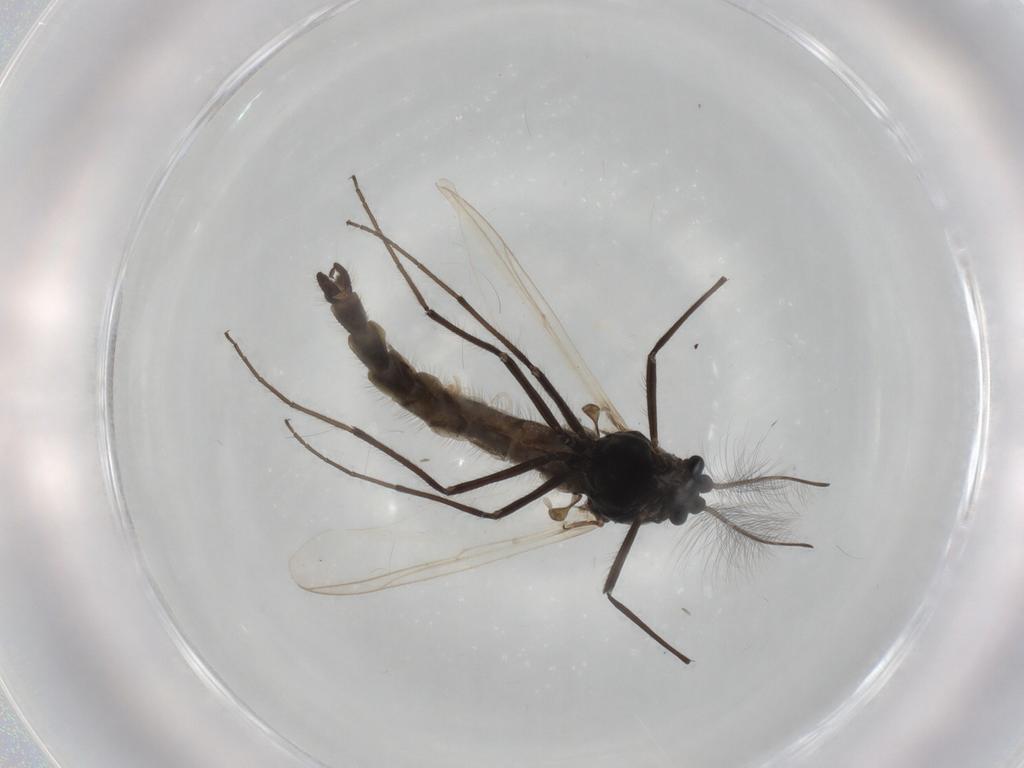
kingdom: Animalia
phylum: Arthropoda
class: Insecta
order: Diptera
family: Chironomidae
